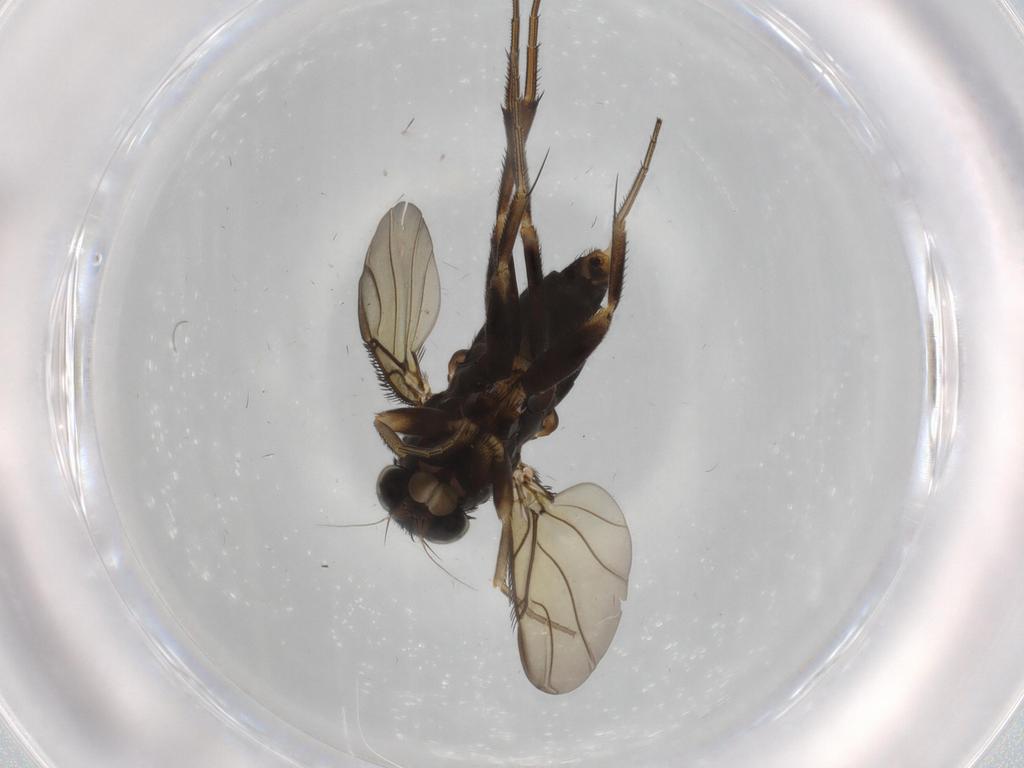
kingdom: Animalia
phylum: Arthropoda
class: Insecta
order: Diptera
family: Phoridae
